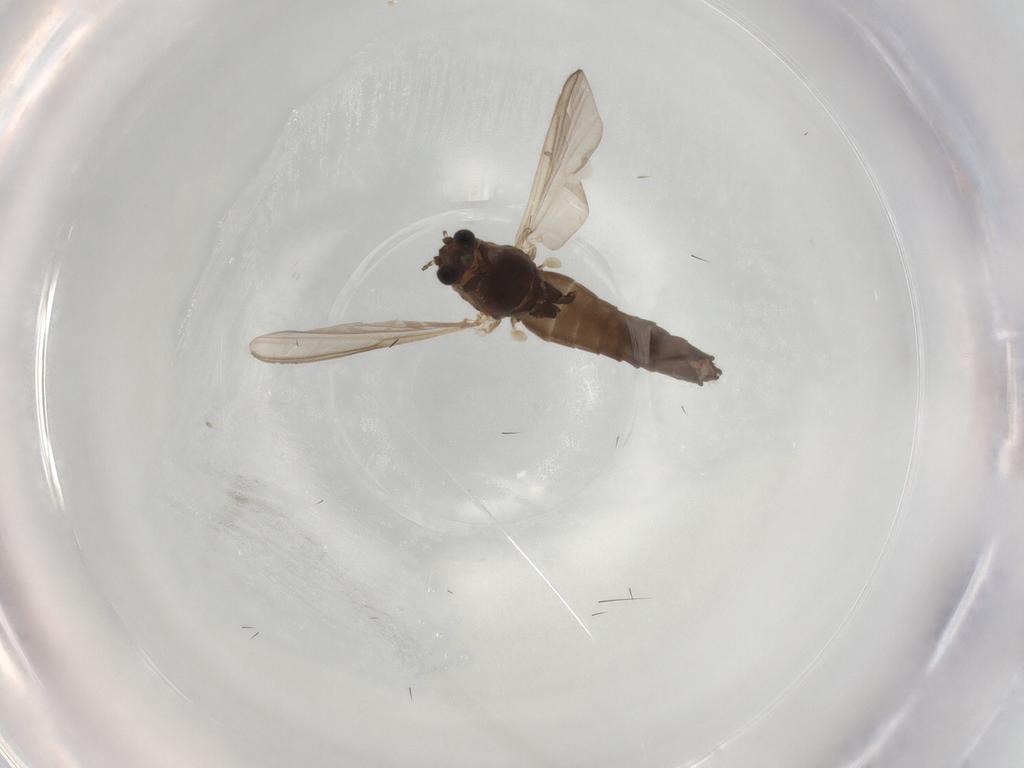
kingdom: Animalia
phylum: Arthropoda
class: Insecta
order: Diptera
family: Chironomidae
